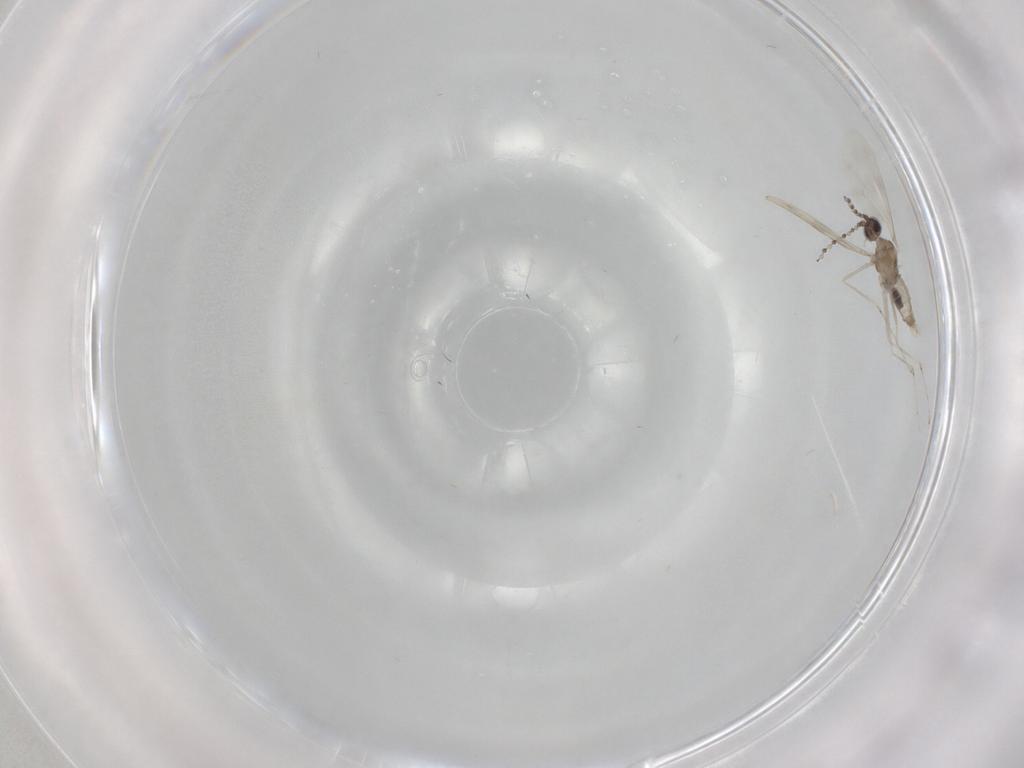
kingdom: Animalia
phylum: Arthropoda
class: Insecta
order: Diptera
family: Cecidomyiidae
